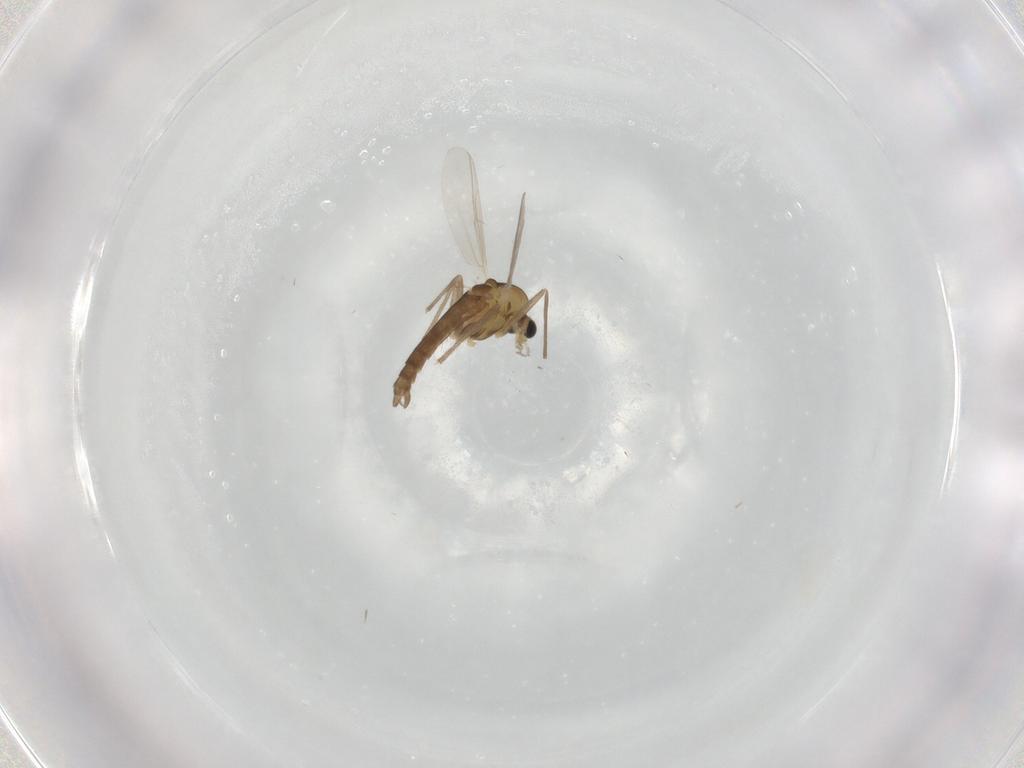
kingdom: Animalia
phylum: Arthropoda
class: Insecta
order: Diptera
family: Chironomidae
